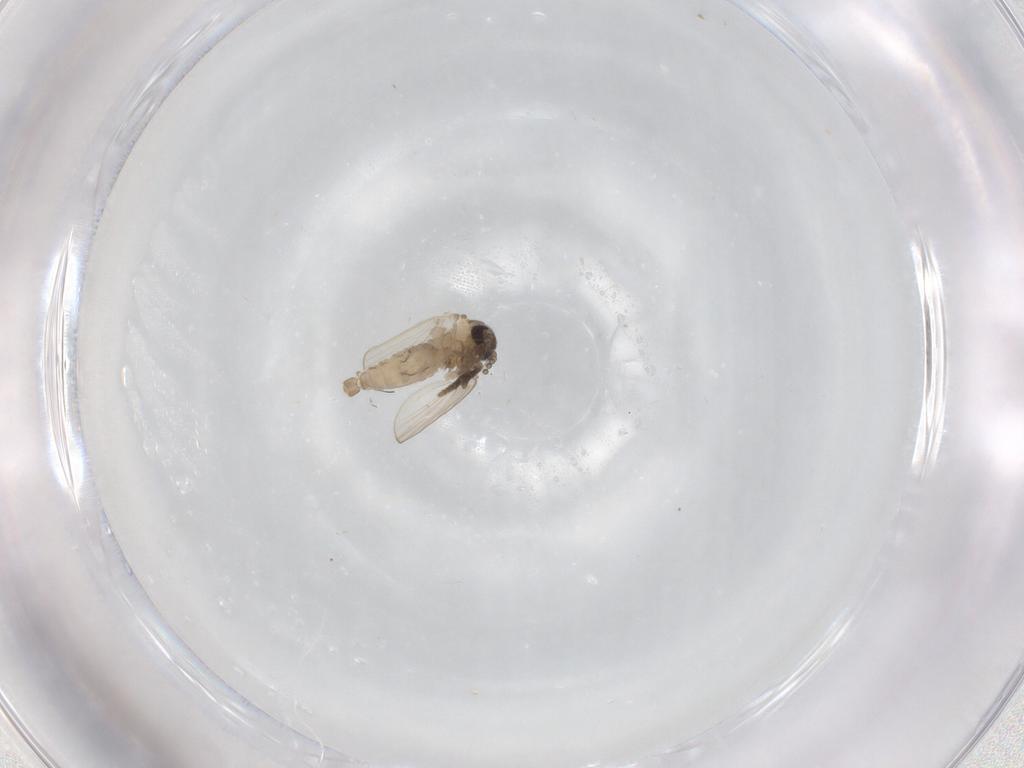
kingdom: Animalia
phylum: Arthropoda
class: Insecta
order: Diptera
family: Psychodidae
